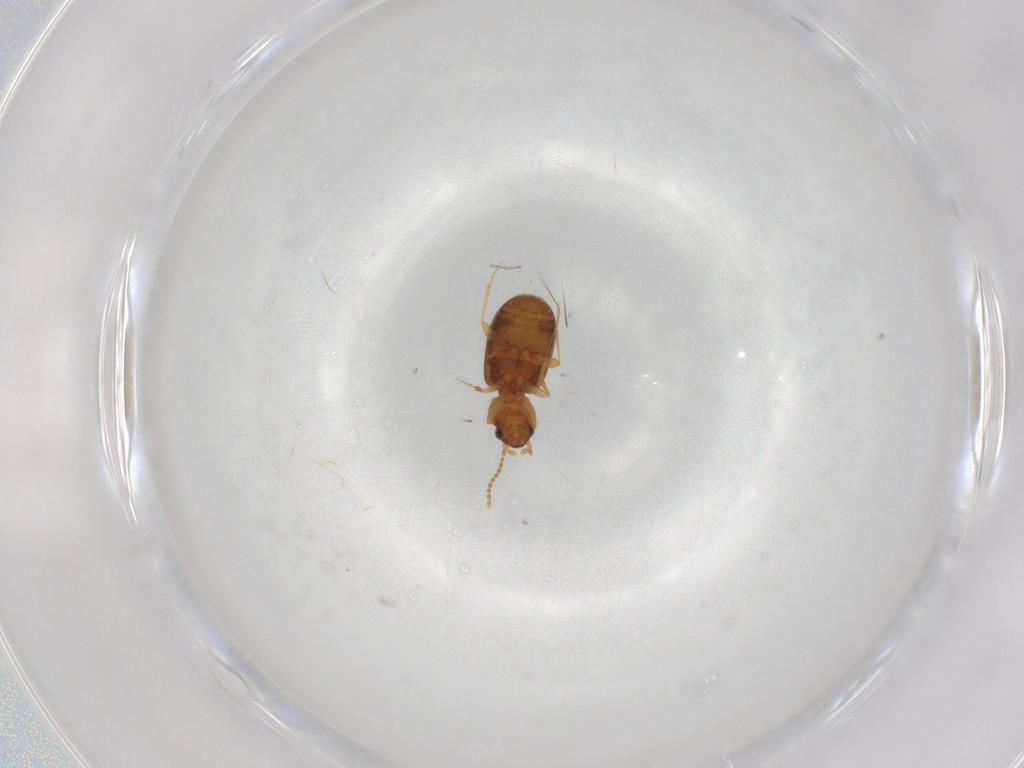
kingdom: Animalia
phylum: Arthropoda
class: Insecta
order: Coleoptera
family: Carabidae
